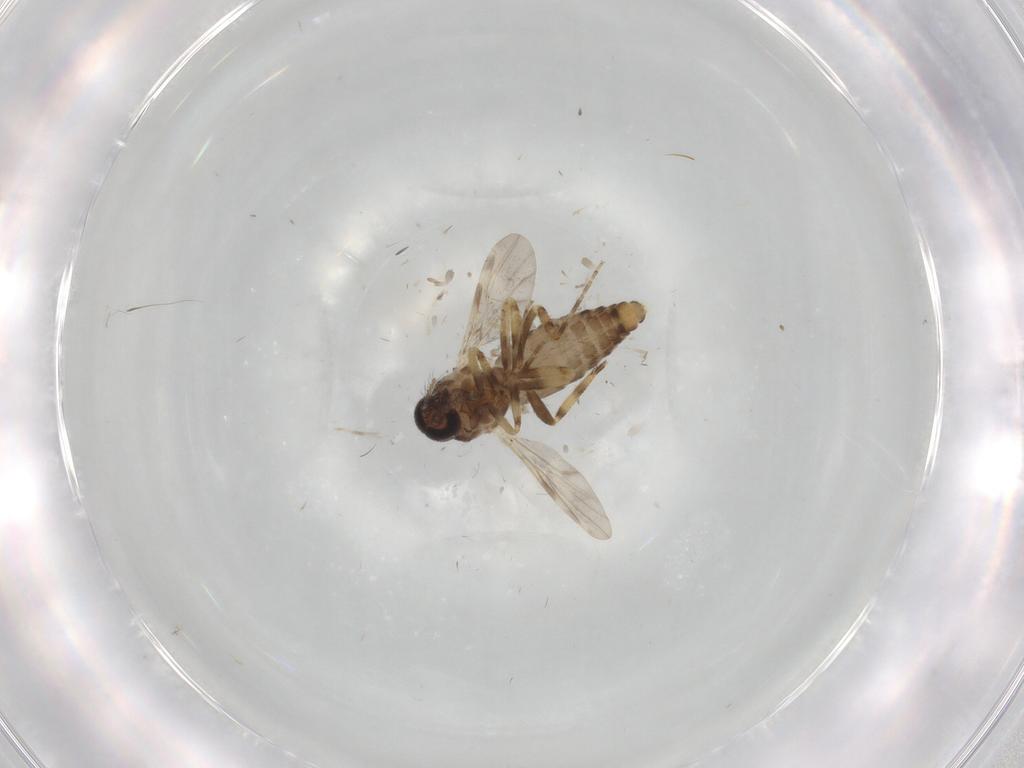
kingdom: Animalia
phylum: Arthropoda
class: Insecta
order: Diptera
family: Ceratopogonidae
